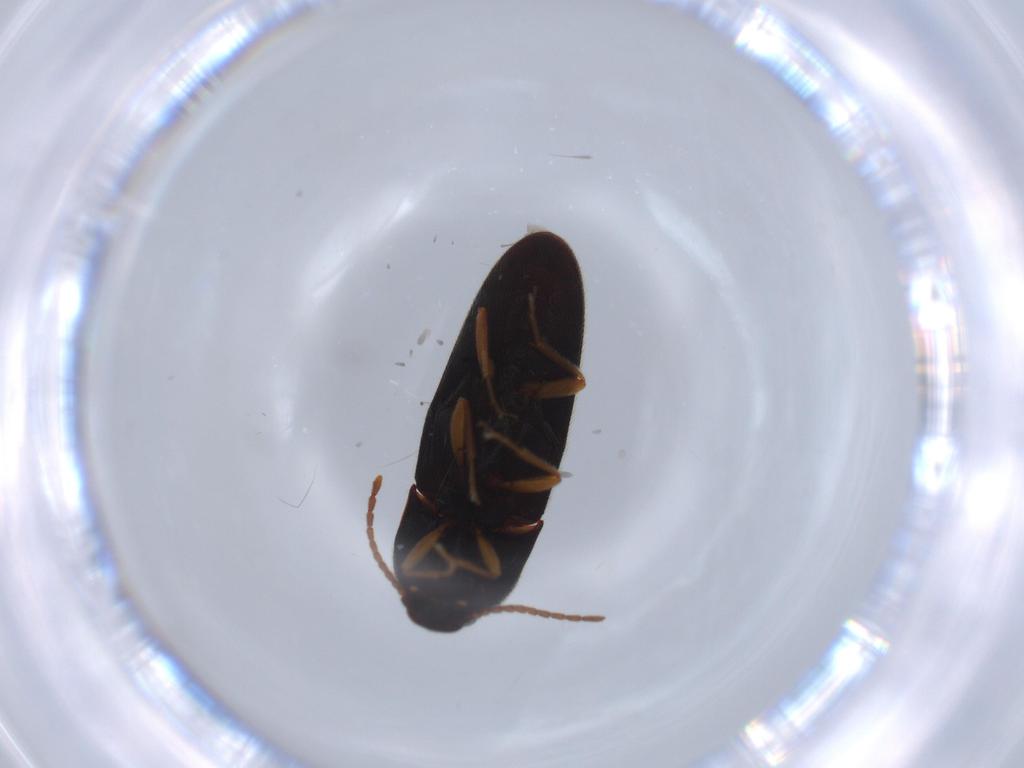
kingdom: Animalia
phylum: Arthropoda
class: Insecta
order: Coleoptera
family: Elateridae
